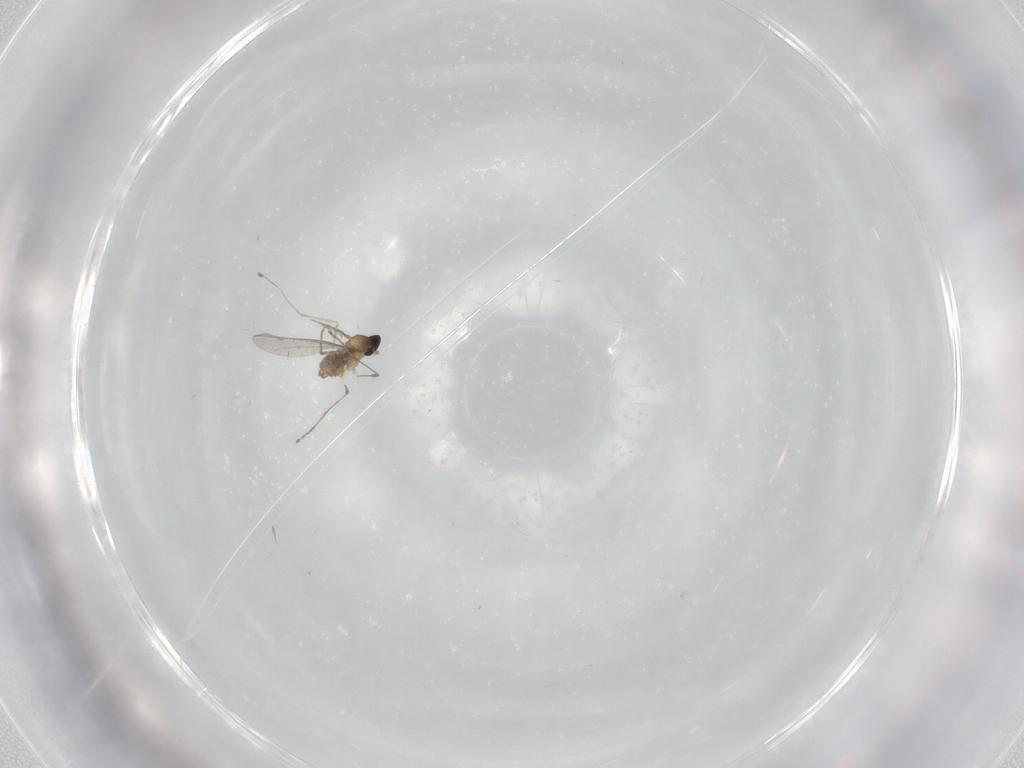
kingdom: Animalia
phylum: Arthropoda
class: Insecta
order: Diptera
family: Cecidomyiidae
